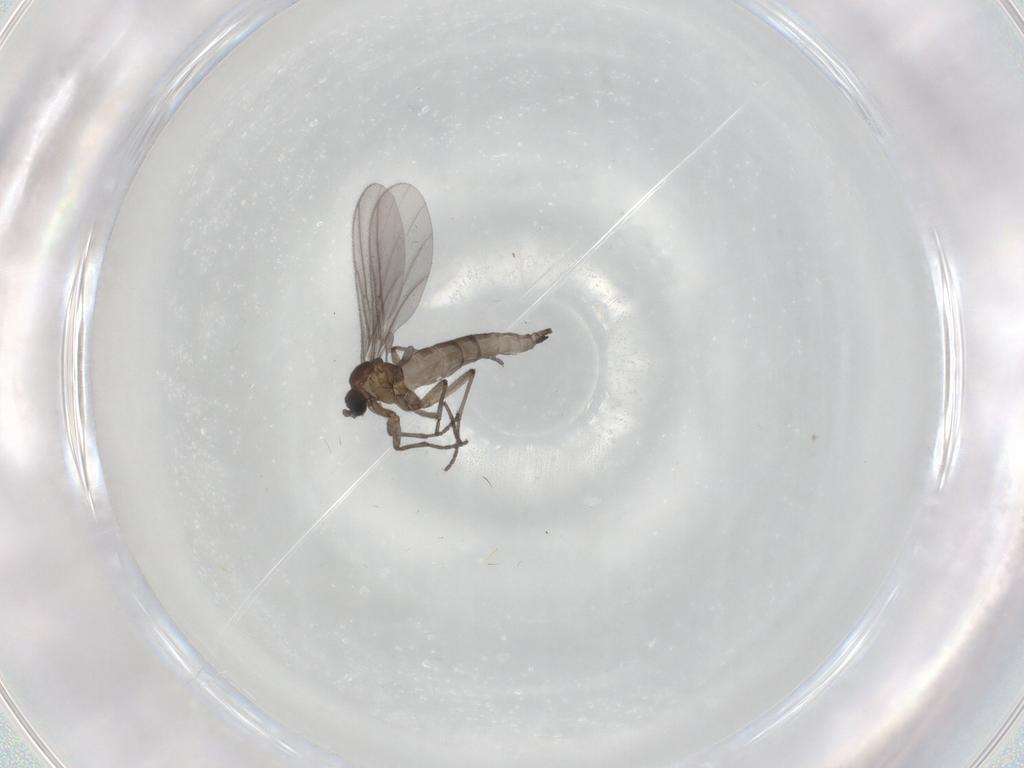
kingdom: Animalia
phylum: Arthropoda
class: Insecta
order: Diptera
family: Sciaridae
